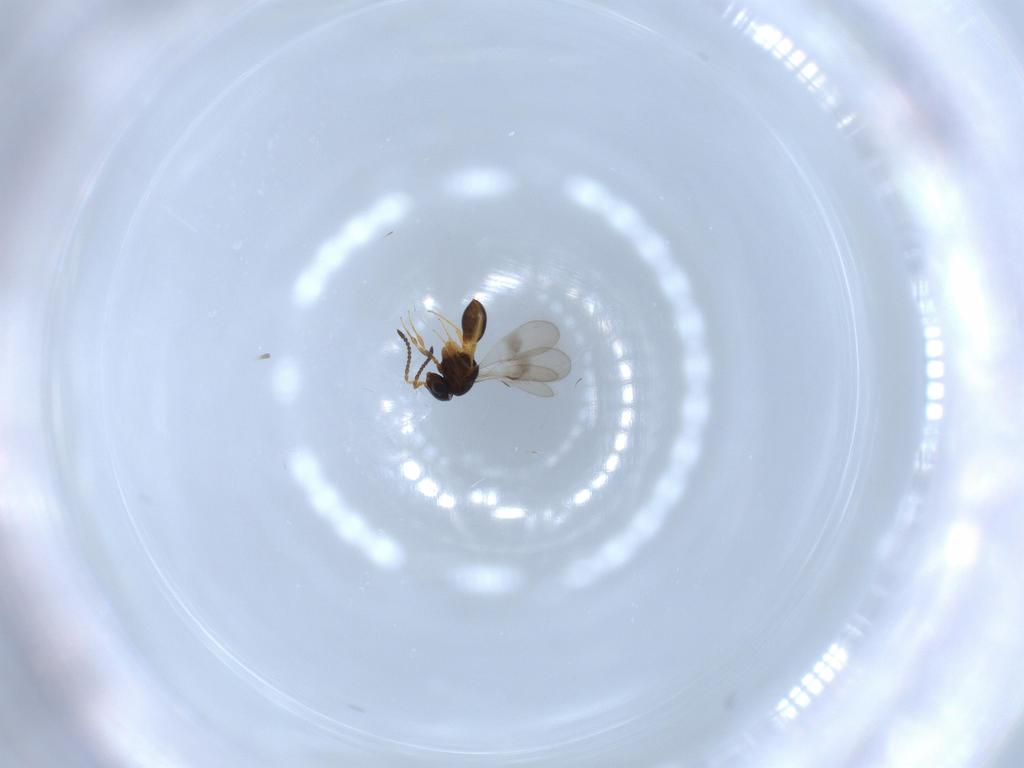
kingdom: Animalia
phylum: Arthropoda
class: Insecta
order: Hymenoptera
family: Scelionidae
